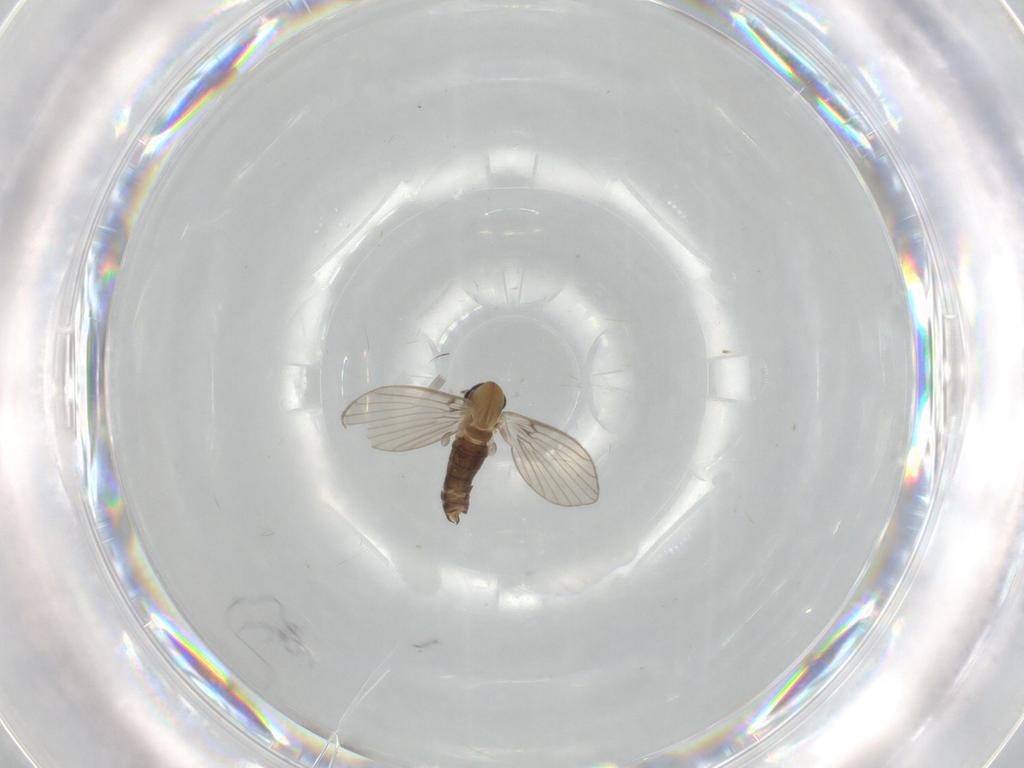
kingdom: Animalia
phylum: Arthropoda
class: Insecta
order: Diptera
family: Psychodidae
